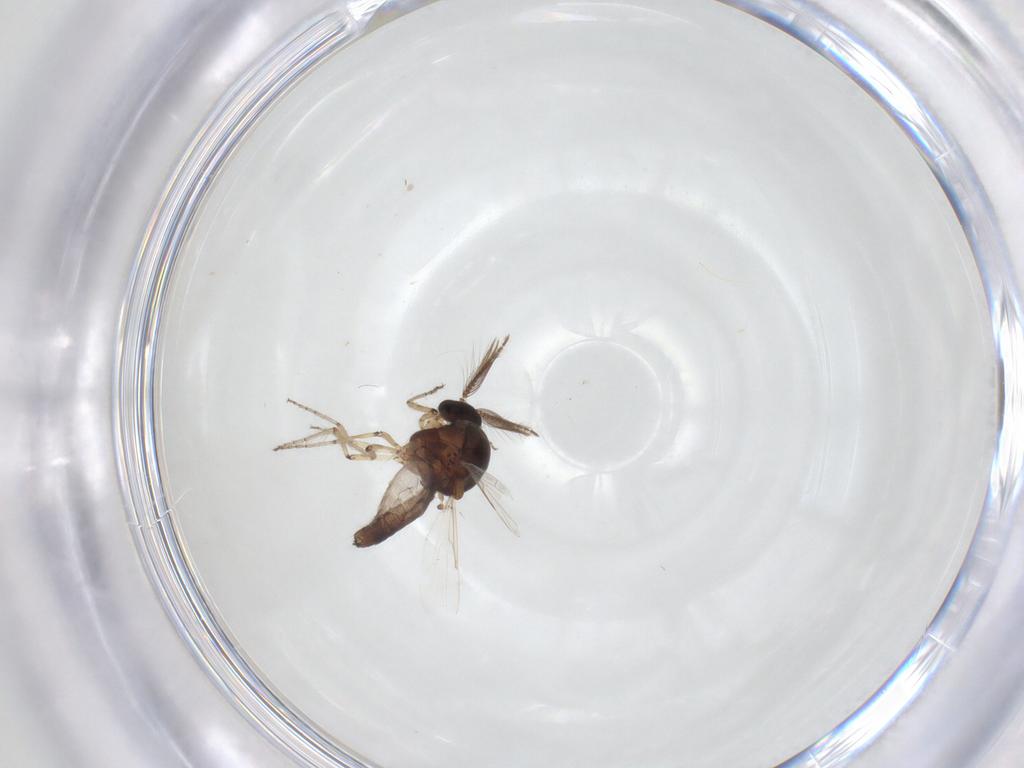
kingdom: Animalia
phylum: Arthropoda
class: Insecta
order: Diptera
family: Ceratopogonidae
